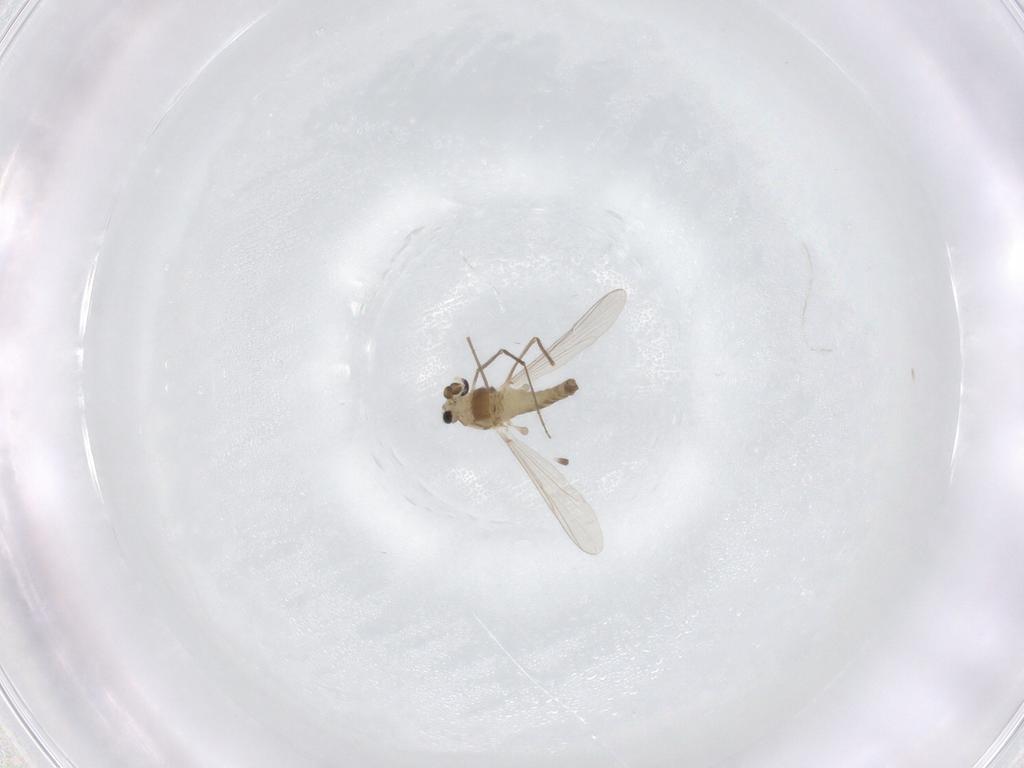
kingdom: Animalia
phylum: Arthropoda
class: Insecta
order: Diptera
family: Chironomidae
